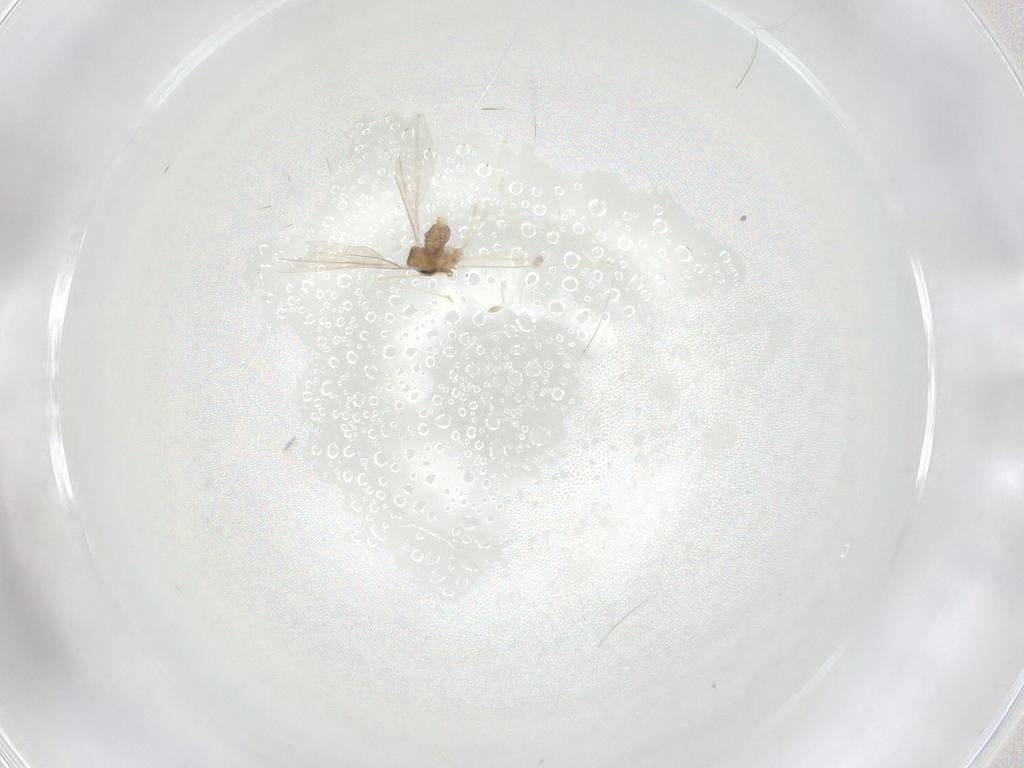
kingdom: Animalia
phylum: Arthropoda
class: Insecta
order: Diptera
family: Cecidomyiidae
